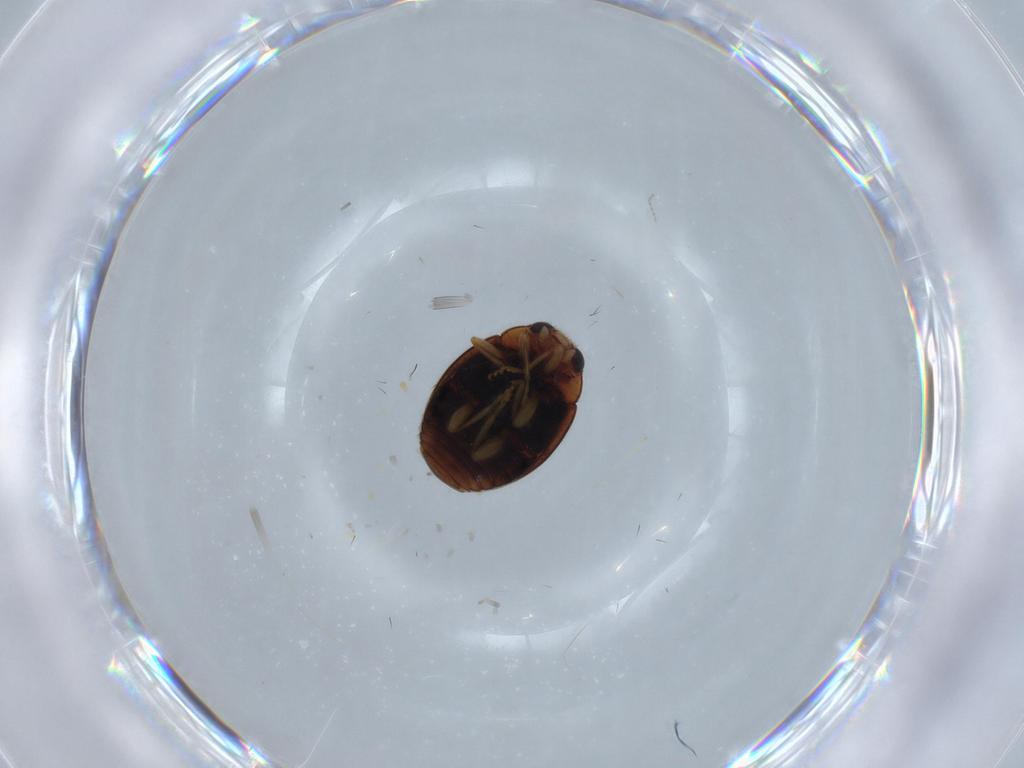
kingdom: Animalia
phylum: Arthropoda
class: Insecta
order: Coleoptera
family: Coccinellidae
